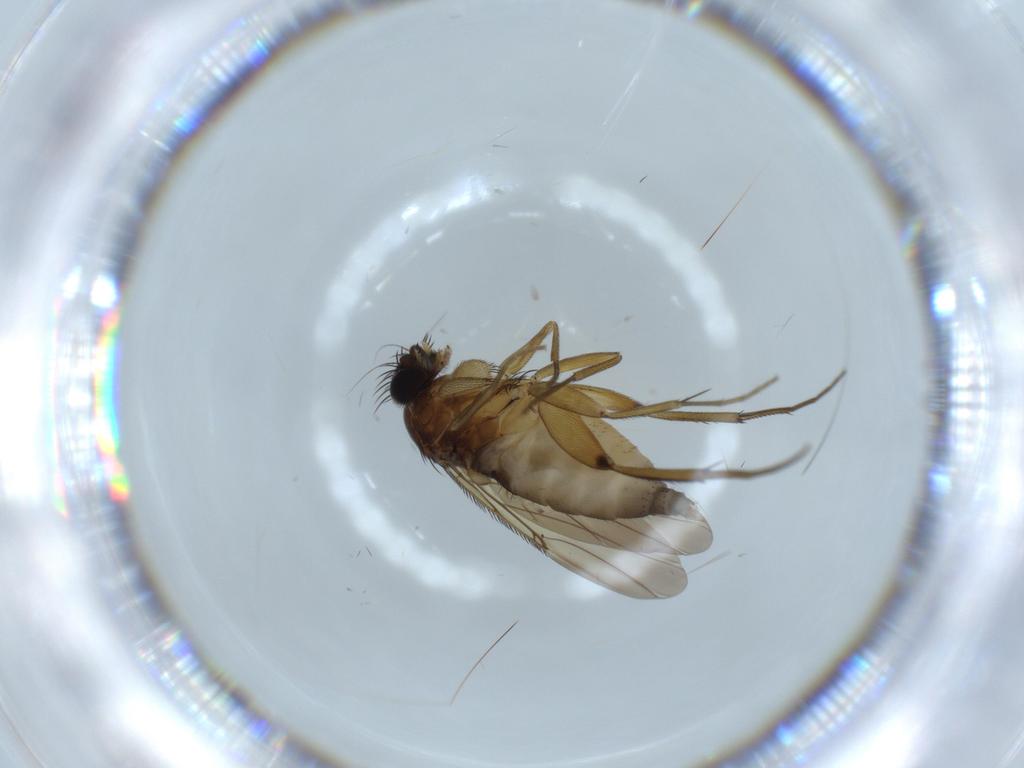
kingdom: Animalia
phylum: Arthropoda
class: Insecta
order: Diptera
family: Phoridae
